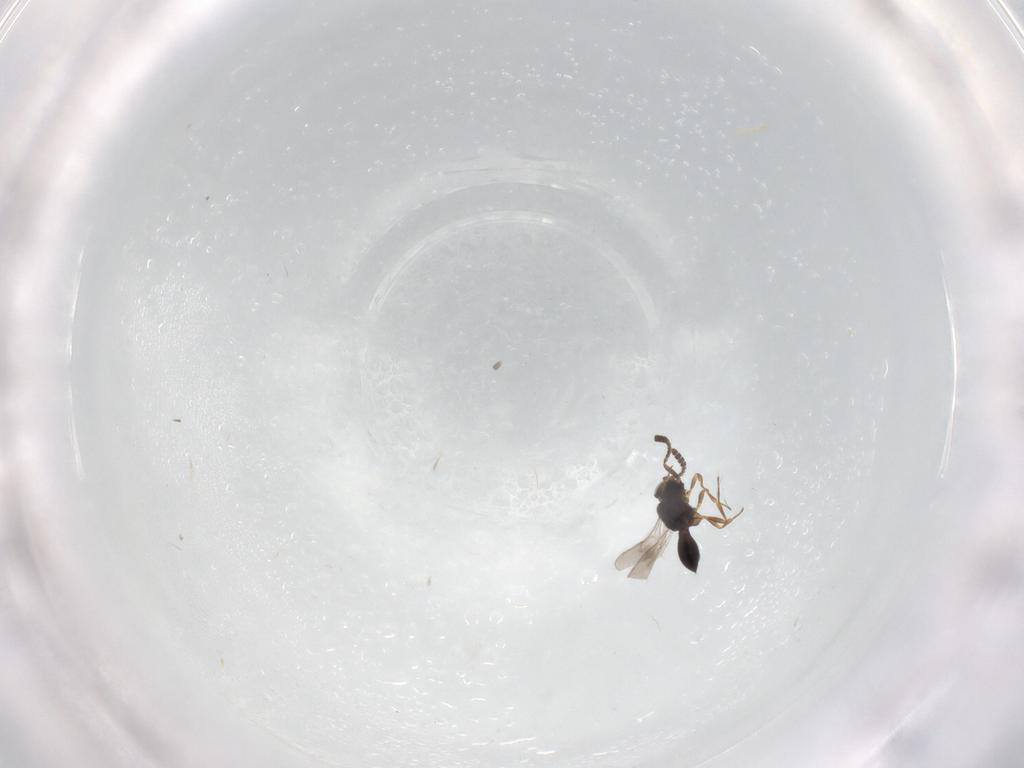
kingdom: Animalia
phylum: Arthropoda
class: Insecta
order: Hymenoptera
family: Scelionidae
